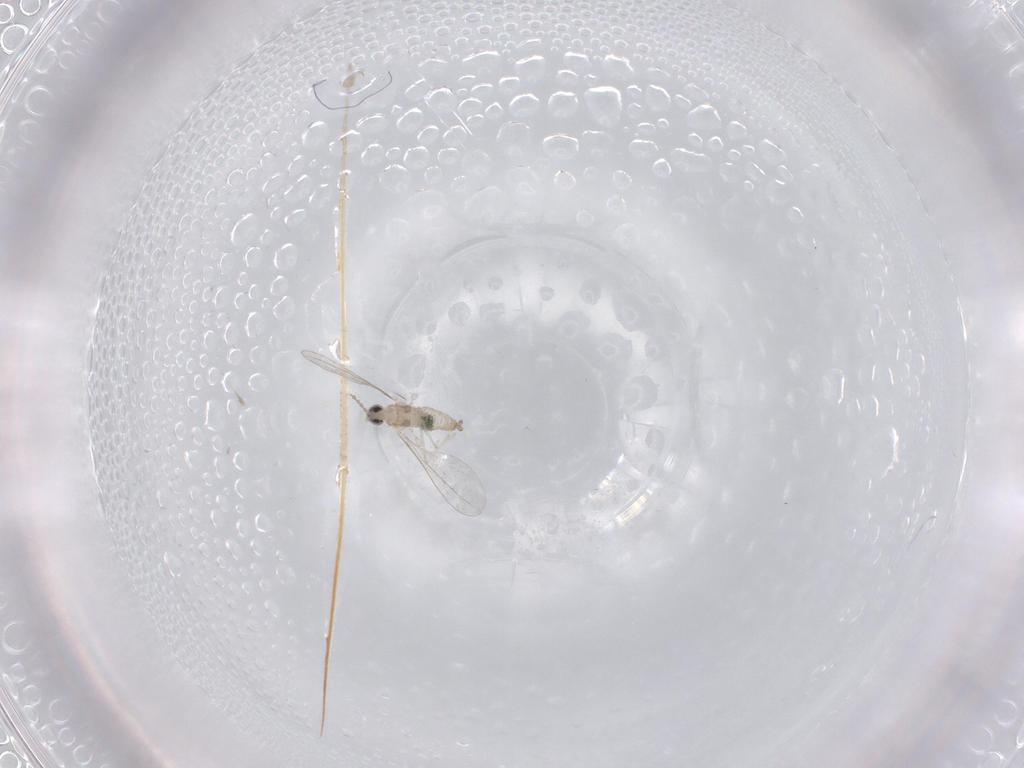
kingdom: Animalia
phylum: Arthropoda
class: Insecta
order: Diptera
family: Cecidomyiidae
